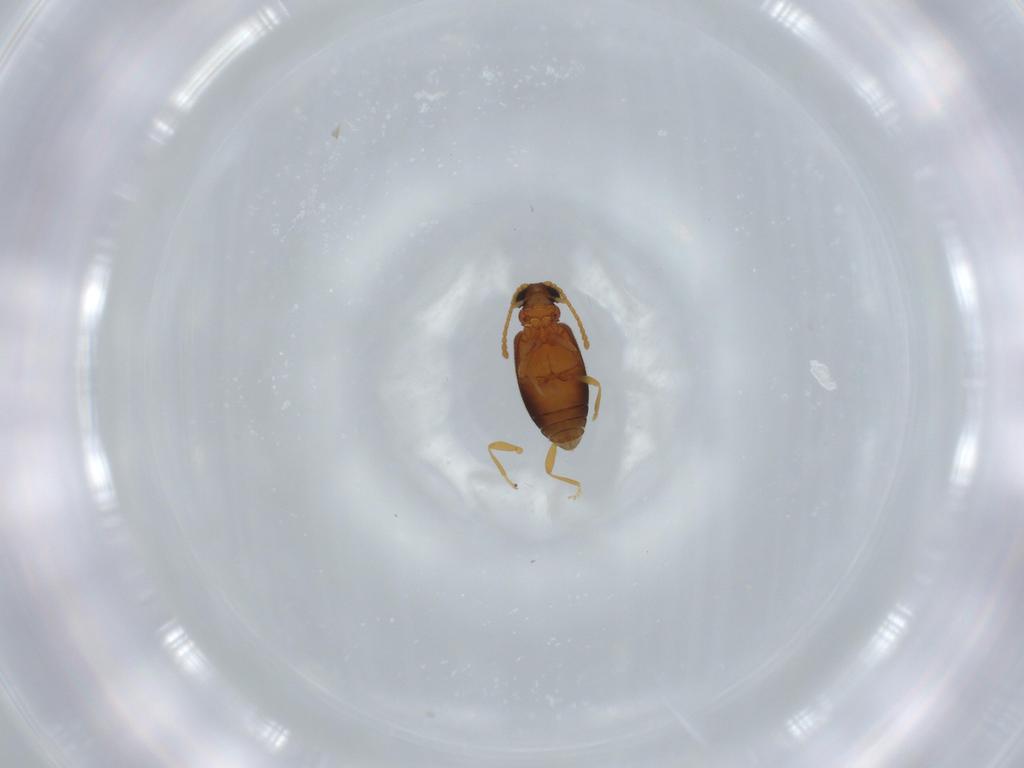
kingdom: Animalia
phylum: Arthropoda
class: Insecta
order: Coleoptera
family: Aderidae
